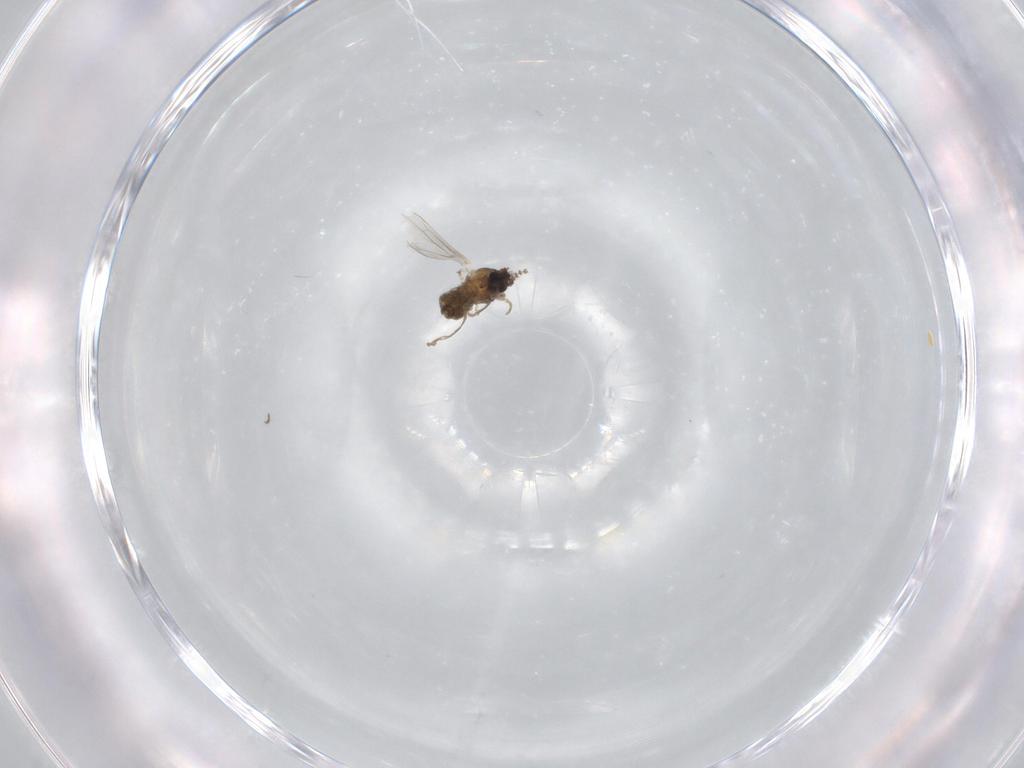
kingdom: Animalia
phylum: Arthropoda
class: Insecta
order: Diptera
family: Cecidomyiidae
